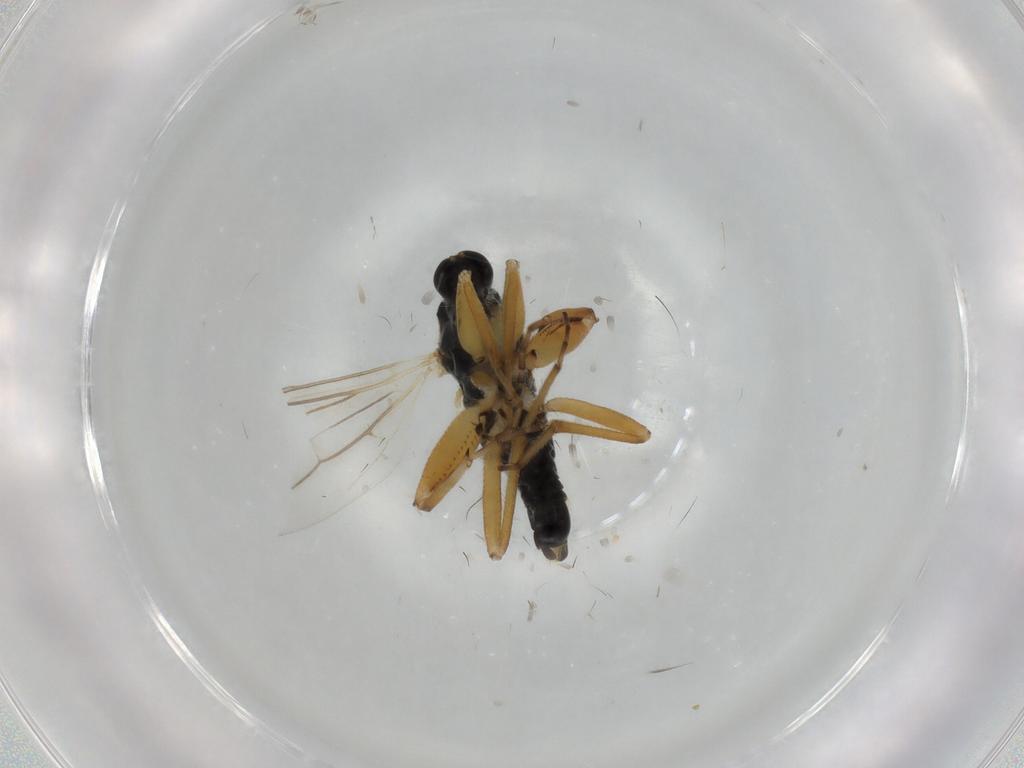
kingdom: Animalia
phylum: Arthropoda
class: Insecta
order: Diptera
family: Hybotidae
